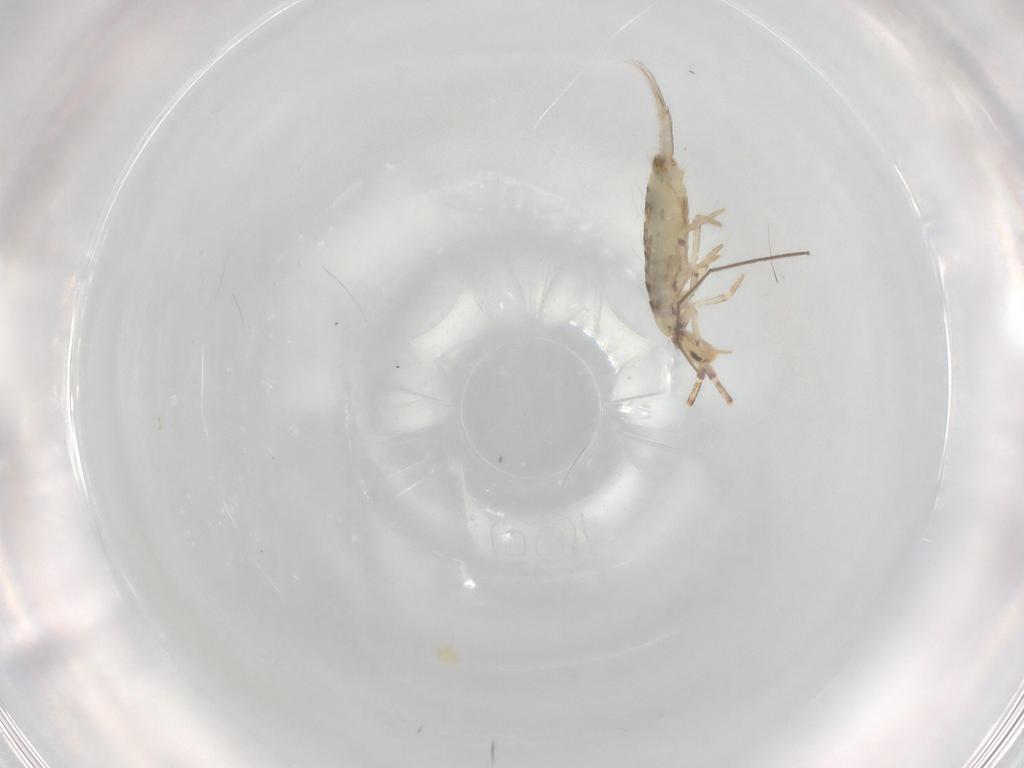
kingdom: Animalia
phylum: Arthropoda
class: Collembola
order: Entomobryomorpha
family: Entomobryidae
